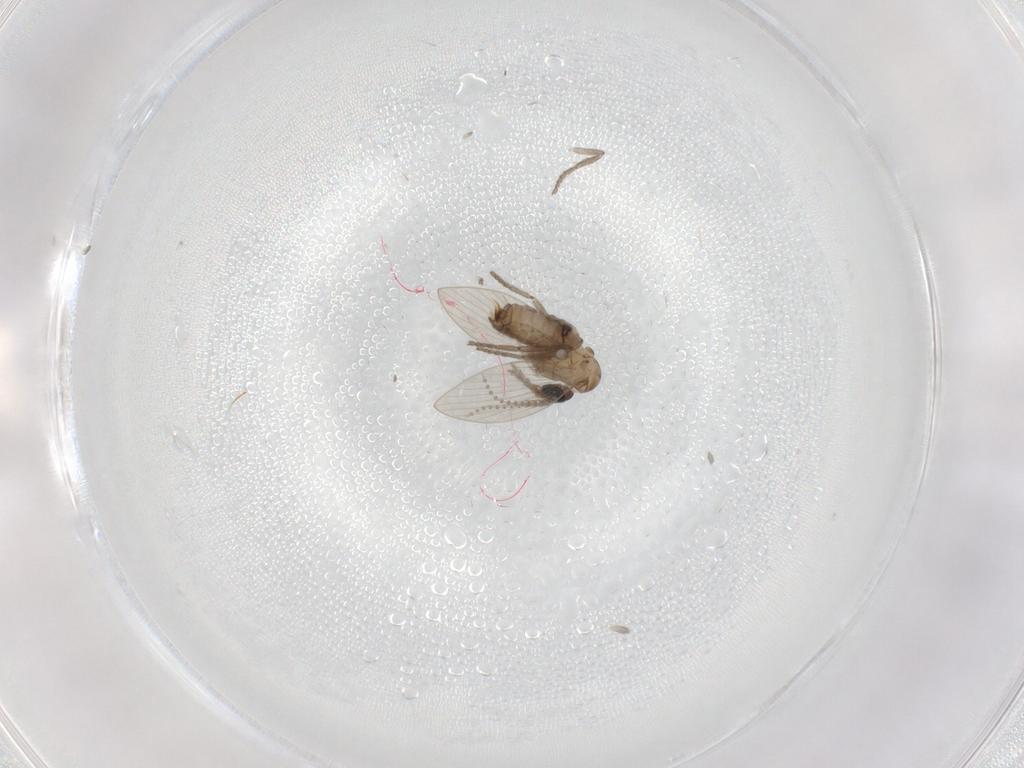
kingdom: Animalia
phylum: Arthropoda
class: Insecta
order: Diptera
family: Psychodidae
